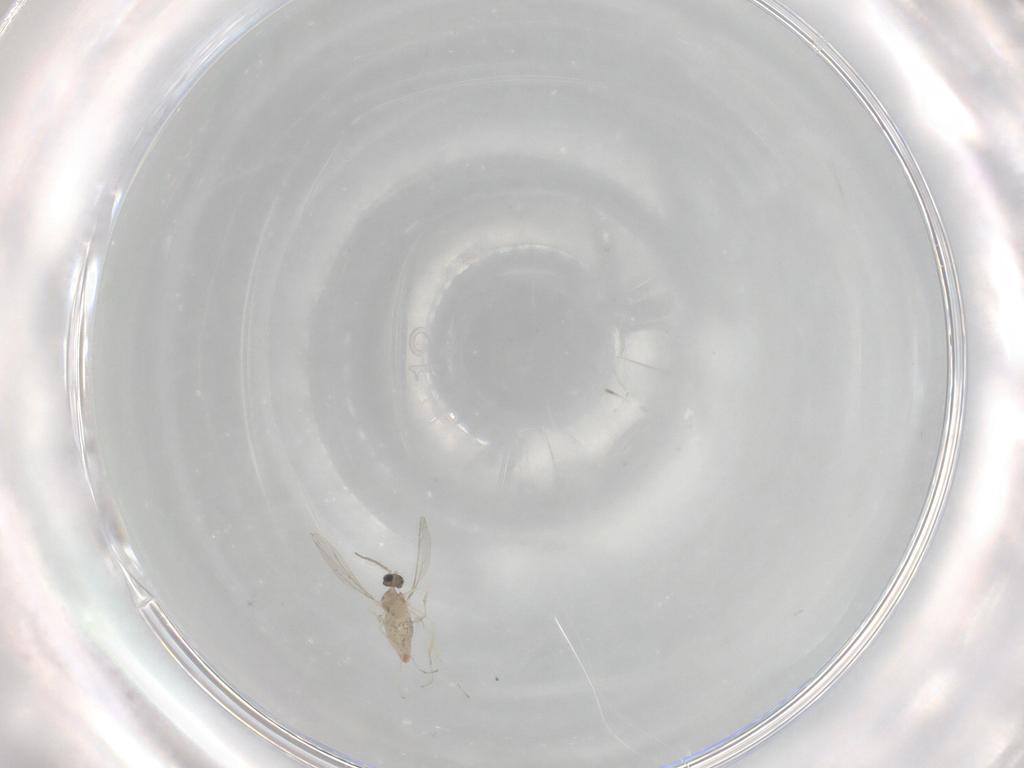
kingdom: Animalia
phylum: Arthropoda
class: Insecta
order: Diptera
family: Cecidomyiidae
